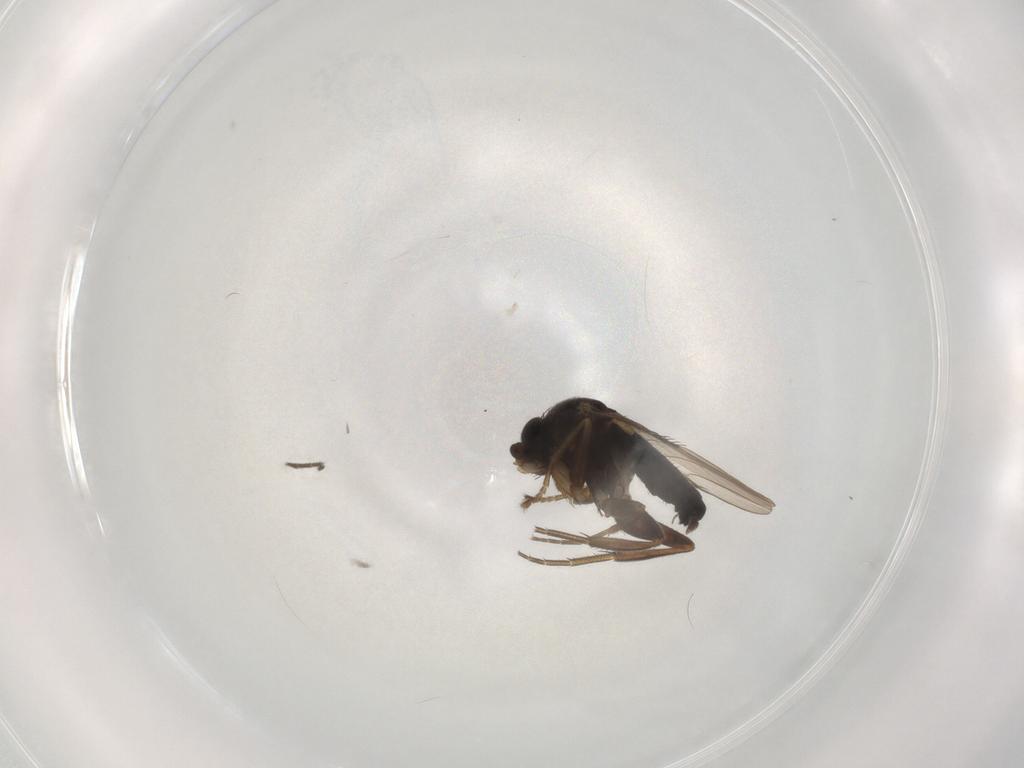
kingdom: Animalia
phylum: Arthropoda
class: Insecta
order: Diptera
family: Phoridae
